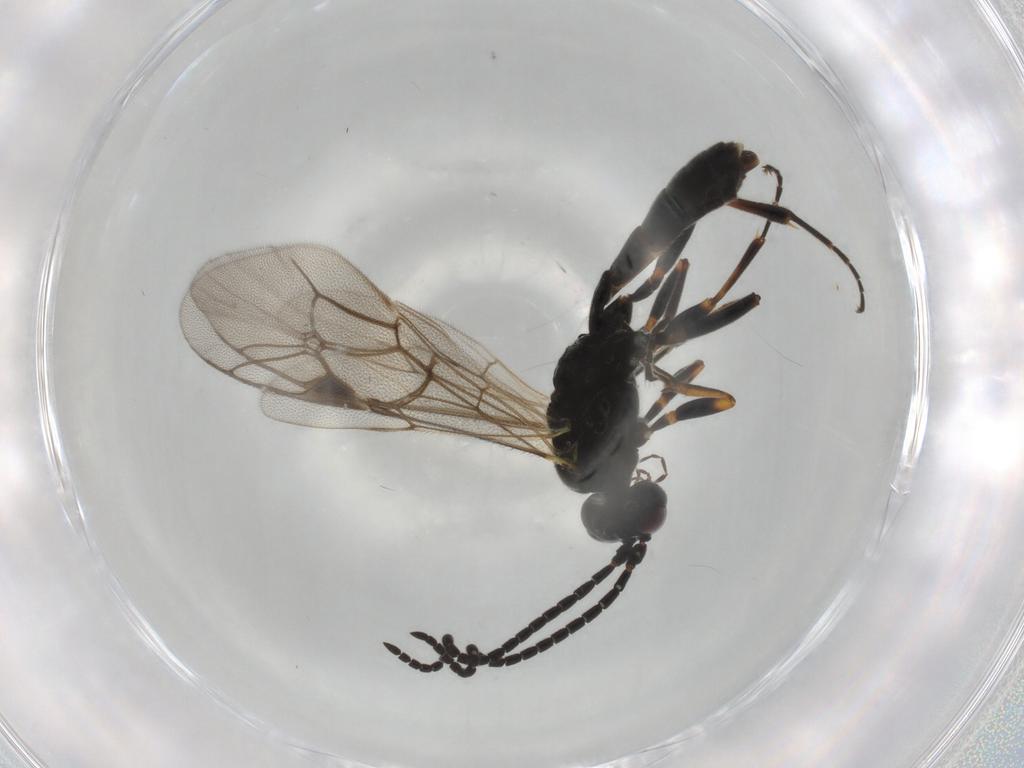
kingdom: Animalia
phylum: Arthropoda
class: Insecta
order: Hymenoptera
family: Ichneumonidae
